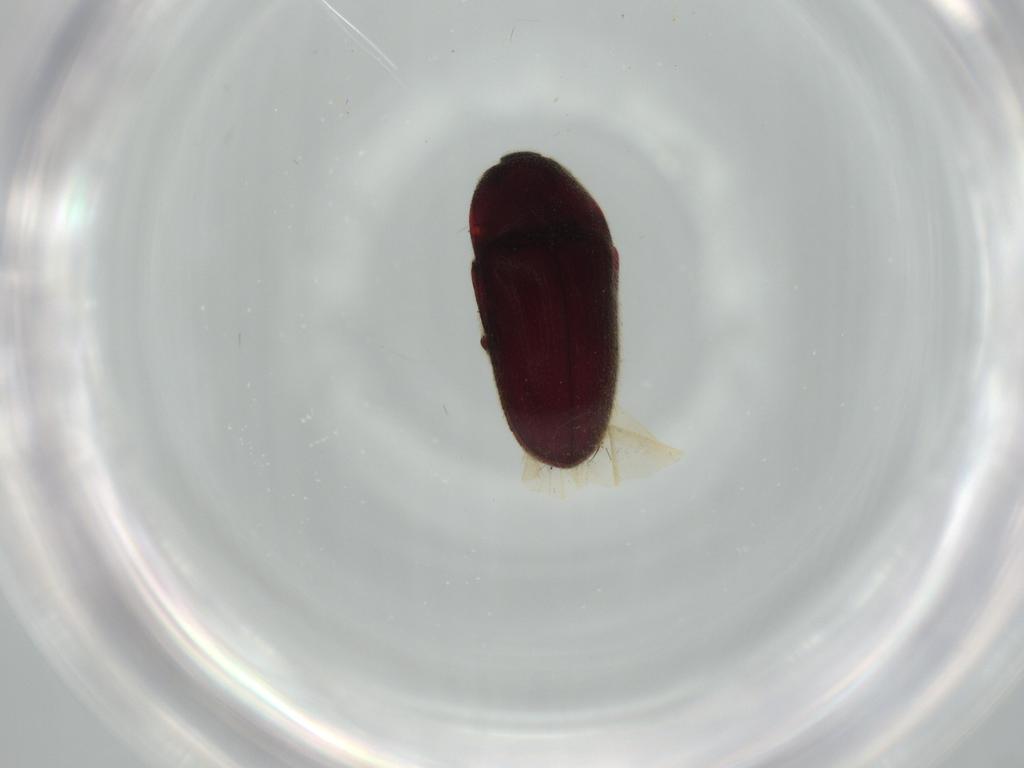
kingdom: Animalia
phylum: Arthropoda
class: Insecta
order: Coleoptera
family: Throscidae
